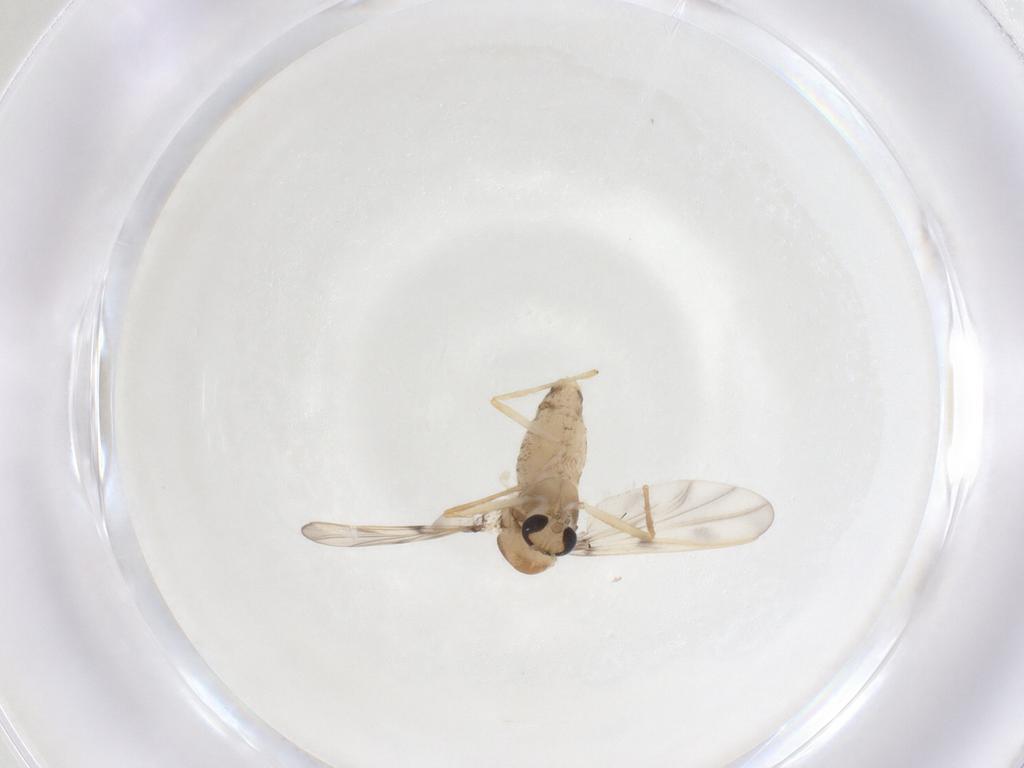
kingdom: Animalia
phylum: Arthropoda
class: Insecta
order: Diptera
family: Chironomidae
